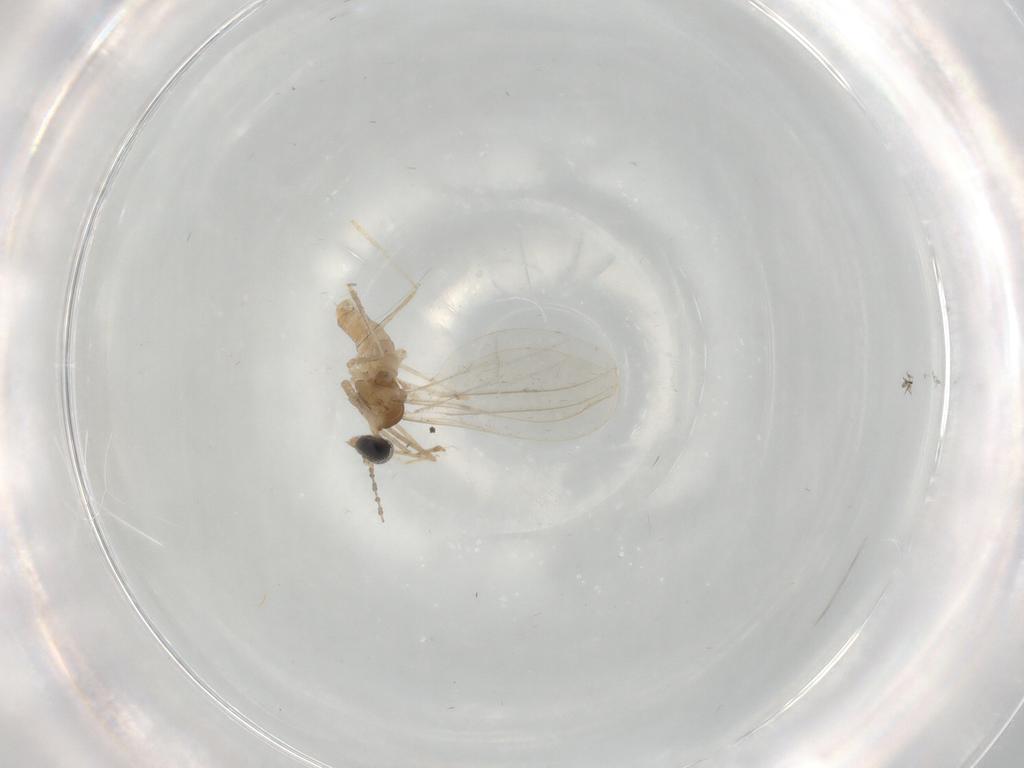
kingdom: Animalia
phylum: Arthropoda
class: Insecta
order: Diptera
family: Cecidomyiidae
